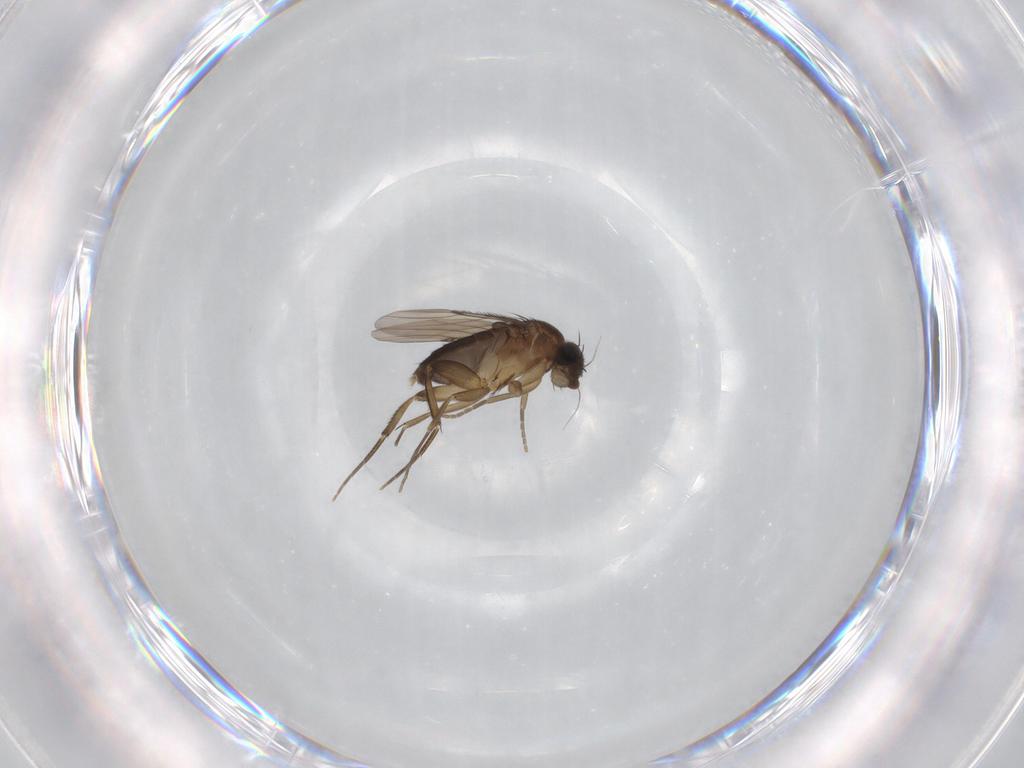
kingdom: Animalia
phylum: Arthropoda
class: Insecta
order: Diptera
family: Phoridae
